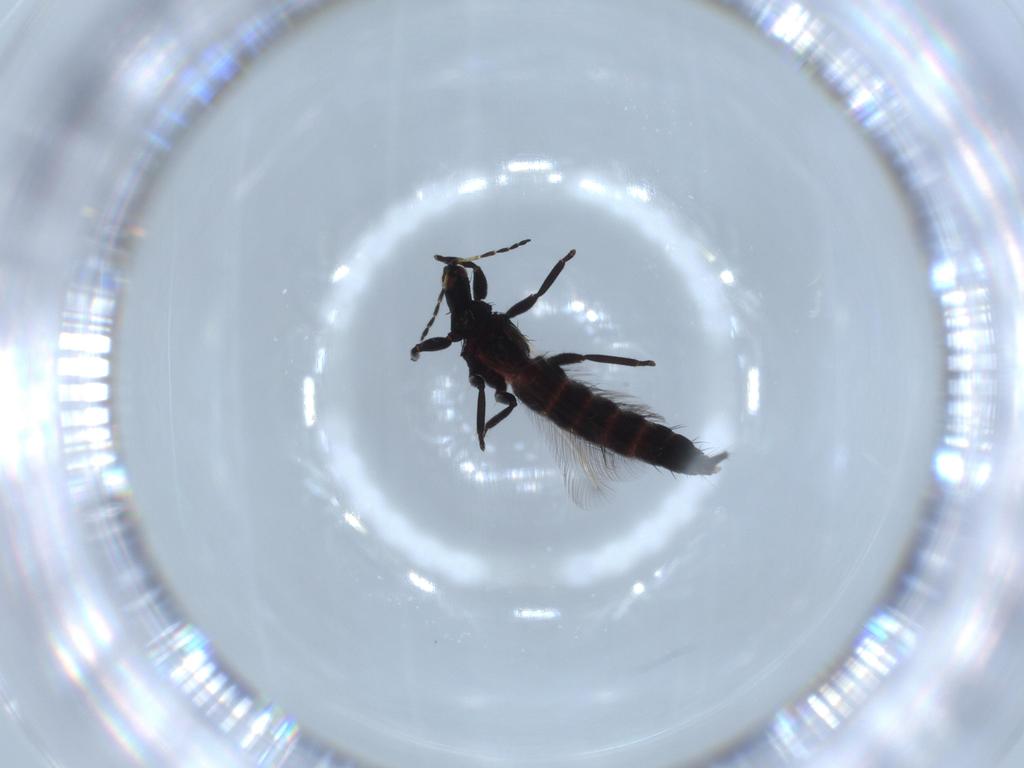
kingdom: Animalia
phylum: Arthropoda
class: Insecta
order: Thysanoptera
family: Phlaeothripidae
